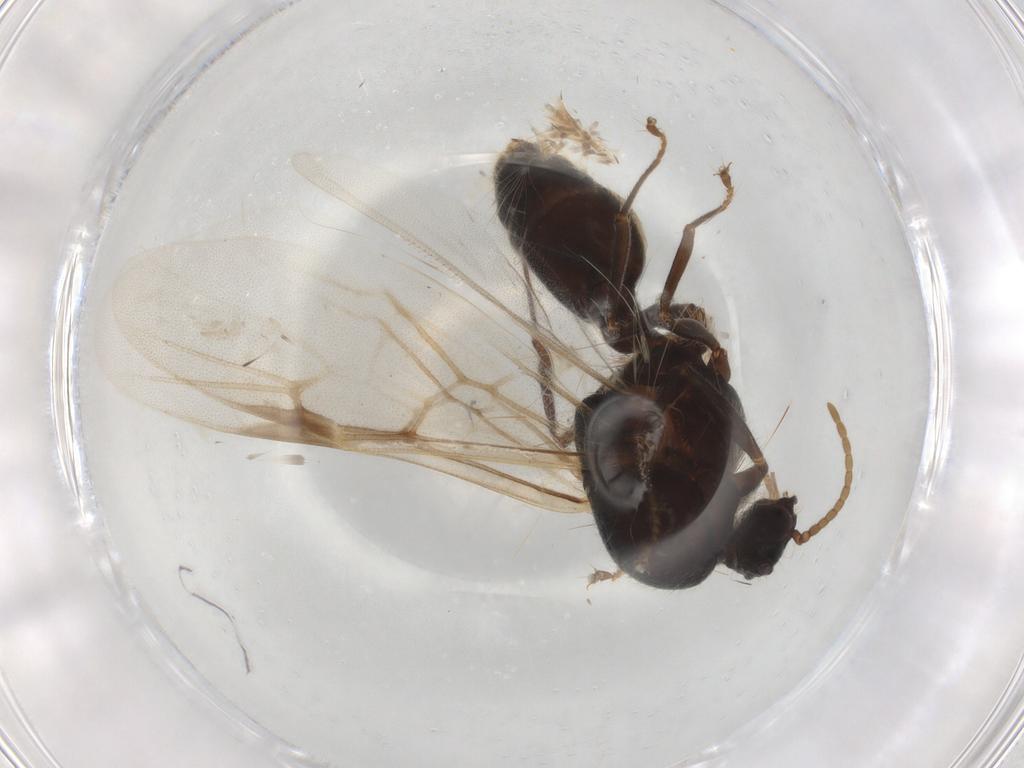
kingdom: Animalia
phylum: Arthropoda
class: Insecta
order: Hymenoptera
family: Formicidae
